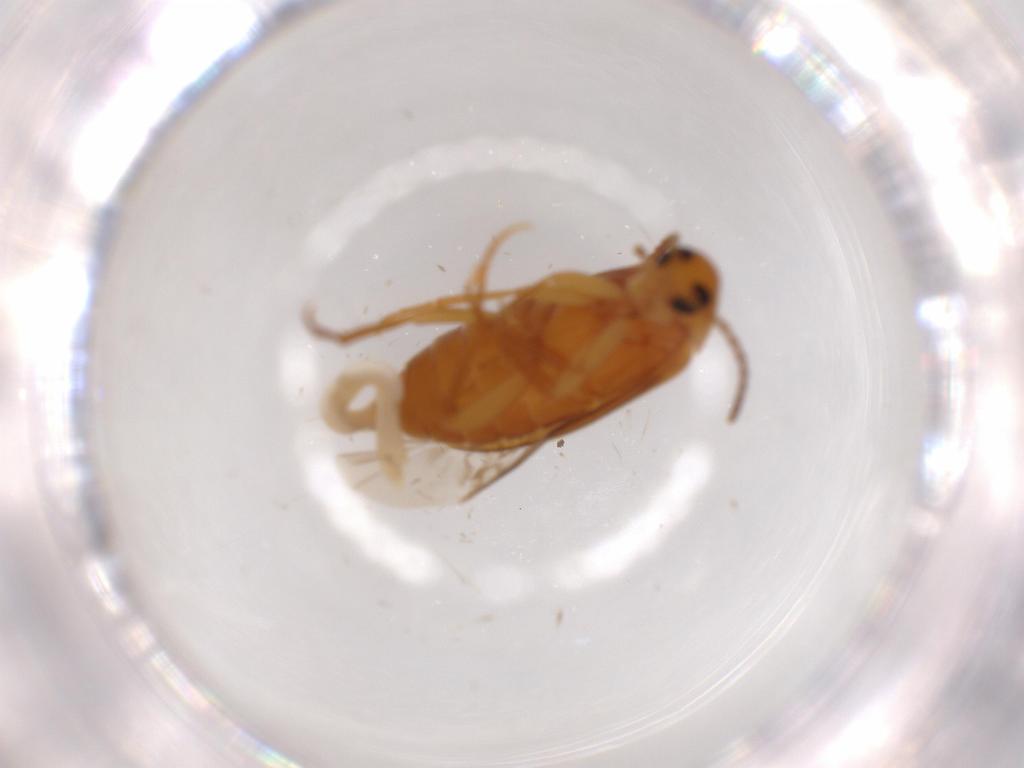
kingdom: Animalia
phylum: Arthropoda
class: Insecta
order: Coleoptera
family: Scraptiidae
